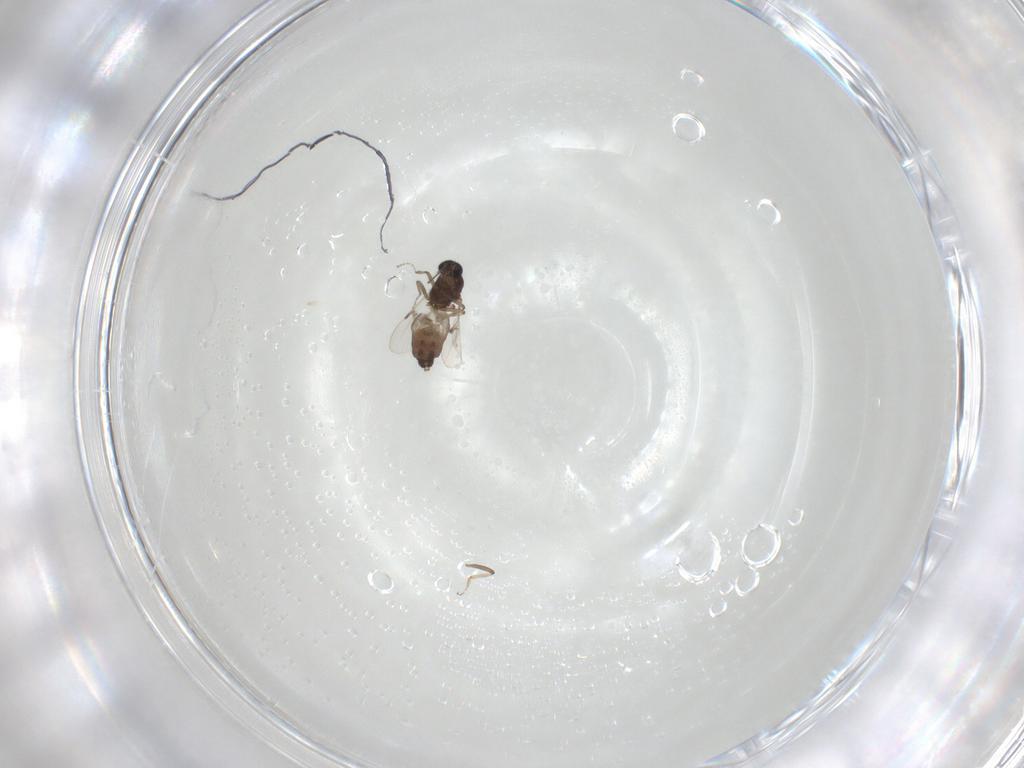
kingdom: Animalia
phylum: Arthropoda
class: Insecta
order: Diptera
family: Ceratopogonidae
